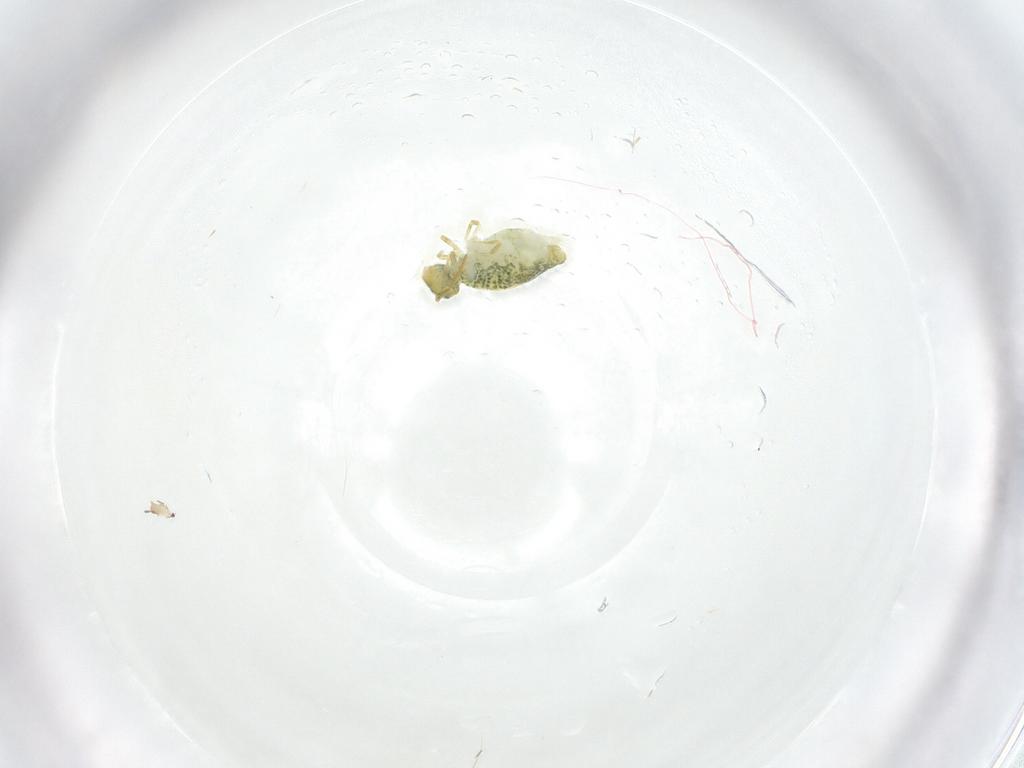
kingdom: Animalia
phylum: Arthropoda
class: Collembola
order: Symphypleona
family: Katiannidae
